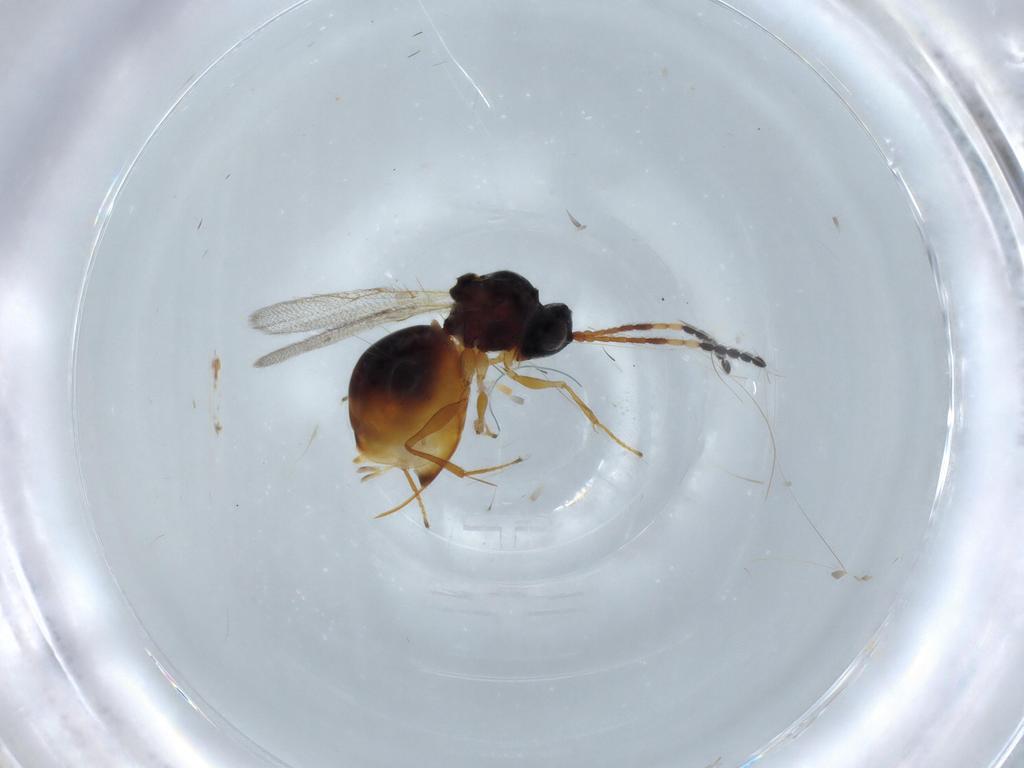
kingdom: Animalia
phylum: Arthropoda
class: Insecta
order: Hymenoptera
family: Figitidae
